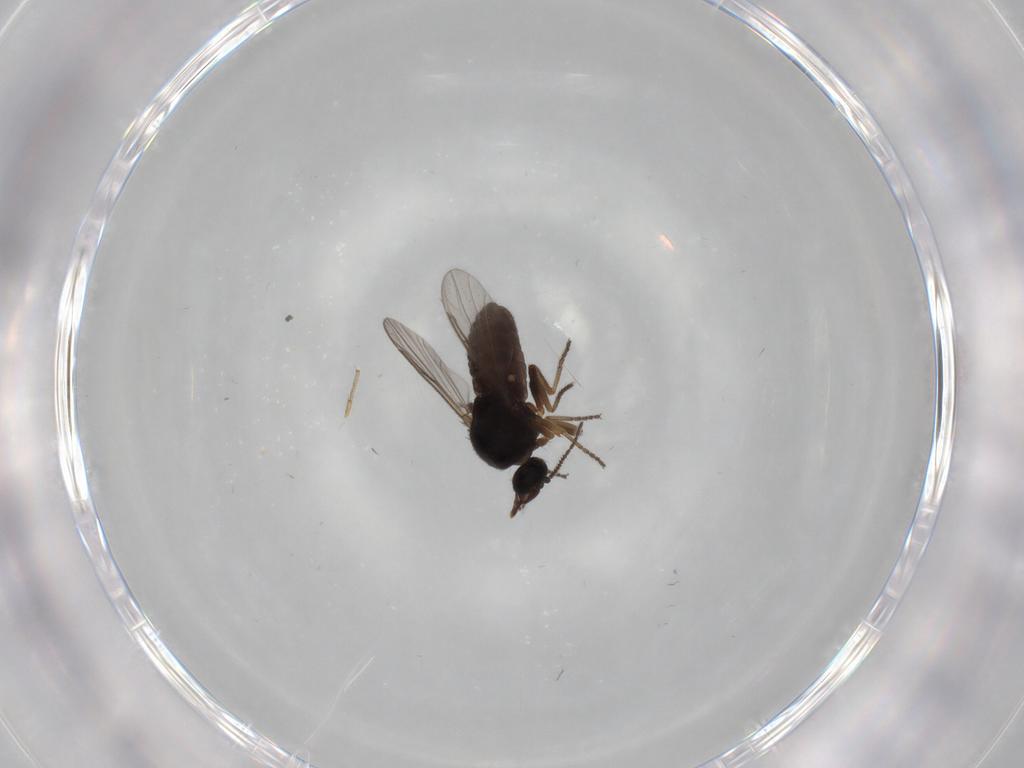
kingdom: Animalia
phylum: Arthropoda
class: Insecta
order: Diptera
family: Ceratopogonidae
